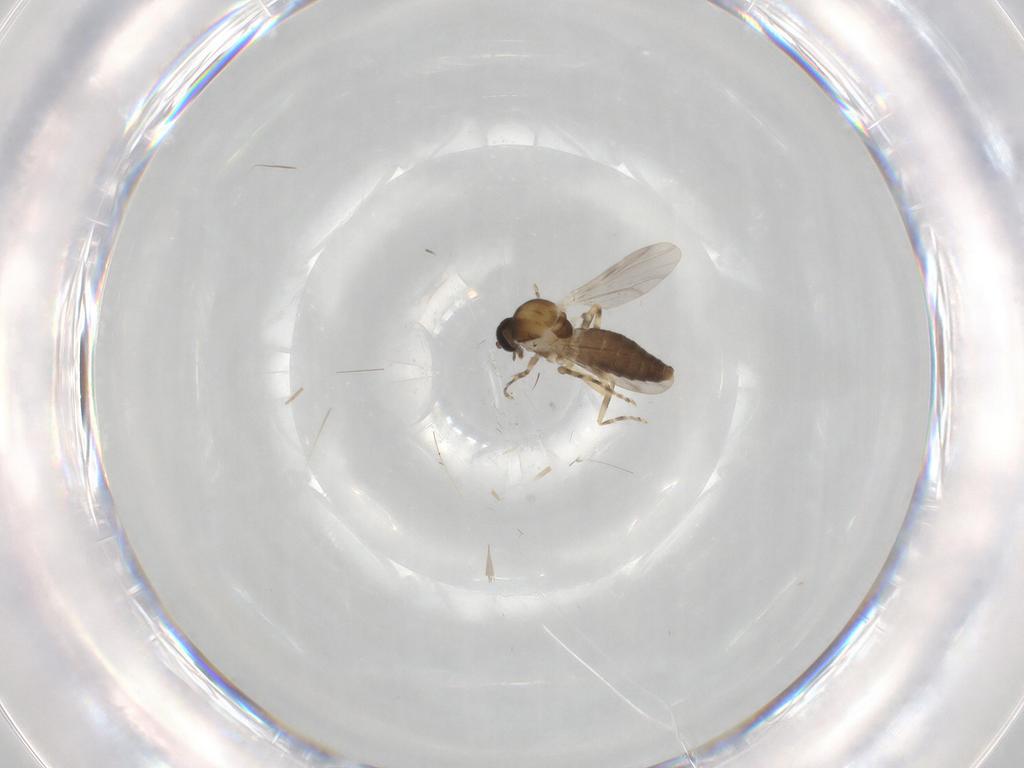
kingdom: Animalia
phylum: Arthropoda
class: Insecta
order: Diptera
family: Ceratopogonidae
